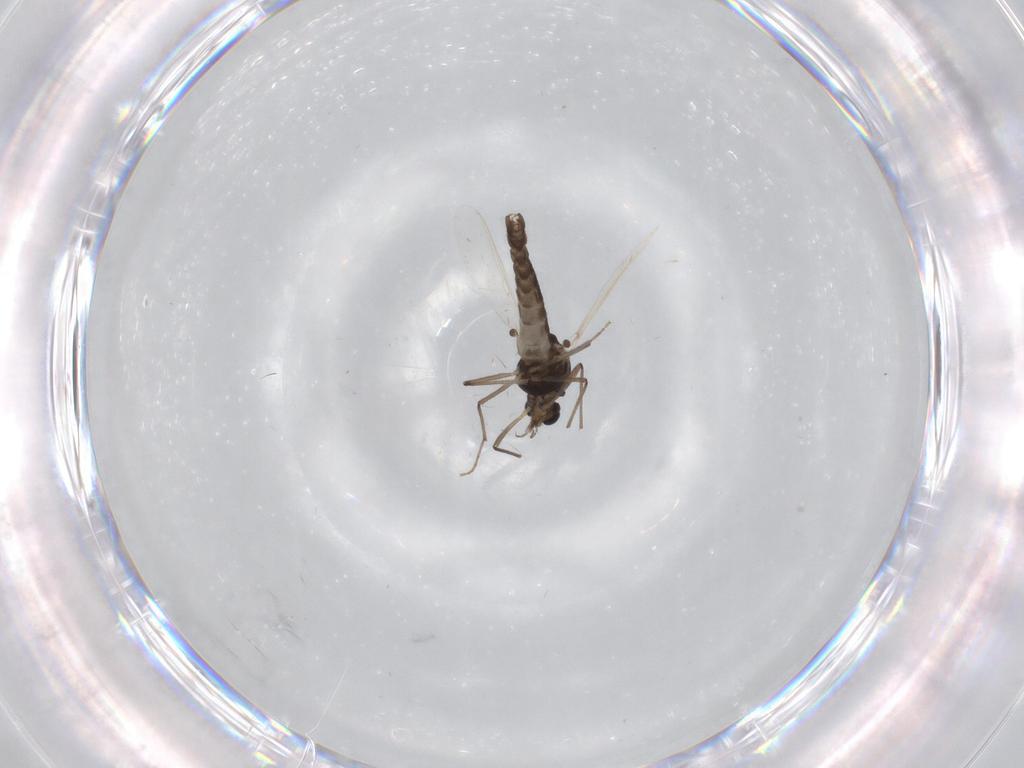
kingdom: Animalia
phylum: Arthropoda
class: Insecta
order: Diptera
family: Chironomidae
